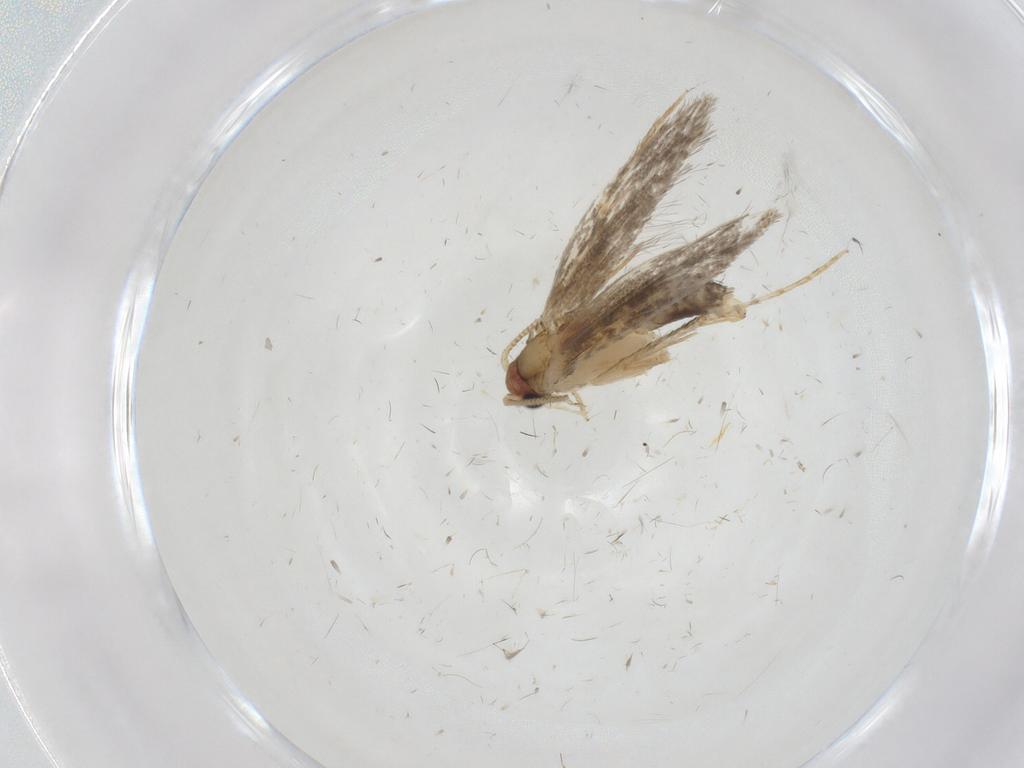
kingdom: Animalia
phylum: Arthropoda
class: Insecta
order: Lepidoptera
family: Tineidae
